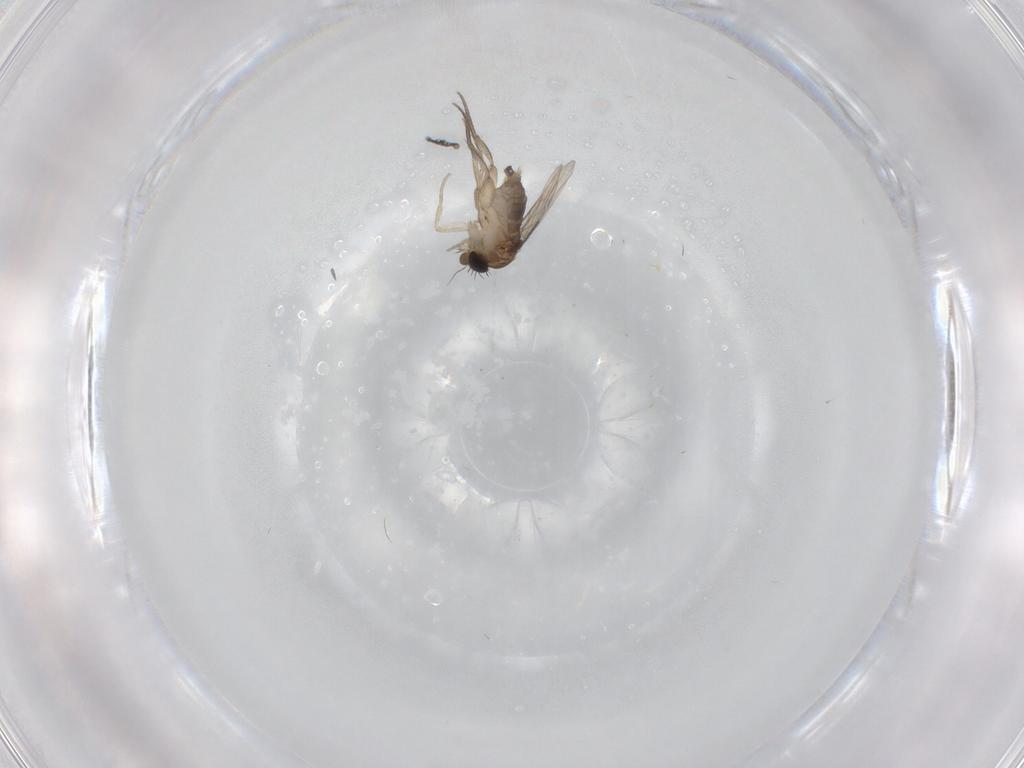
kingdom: Animalia
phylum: Arthropoda
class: Insecta
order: Diptera
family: Phoridae
